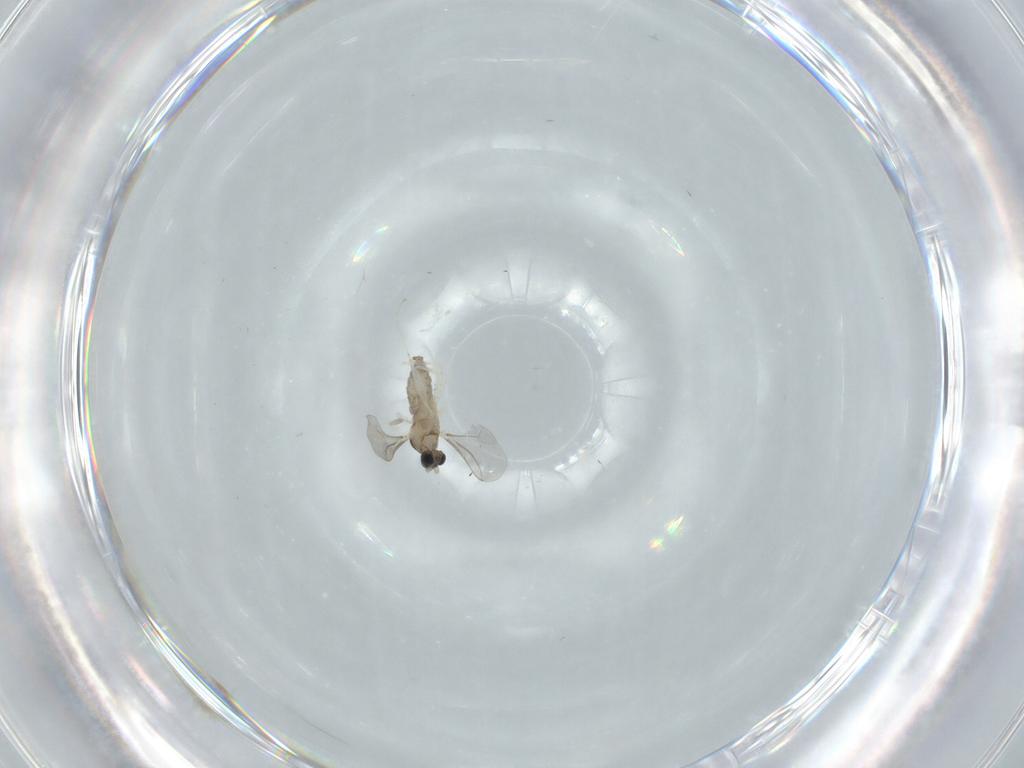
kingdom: Animalia
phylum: Arthropoda
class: Insecta
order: Diptera
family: Cecidomyiidae
